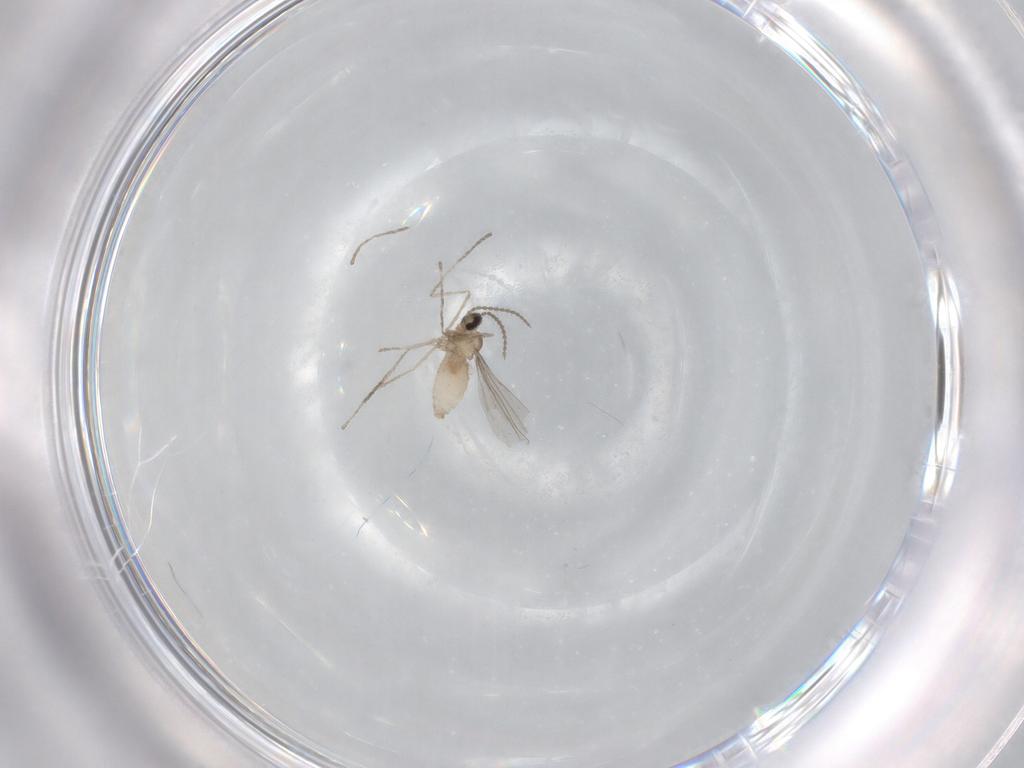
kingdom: Animalia
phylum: Arthropoda
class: Insecta
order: Diptera
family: Cecidomyiidae
